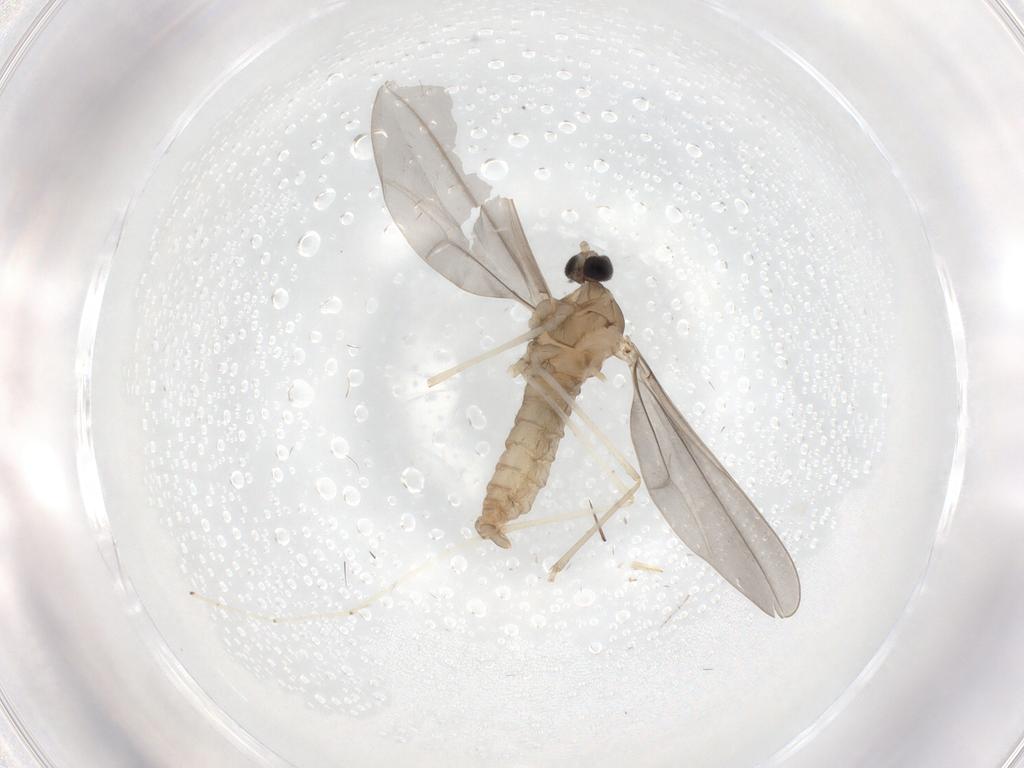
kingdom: Animalia
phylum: Arthropoda
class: Insecta
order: Diptera
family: Cecidomyiidae
